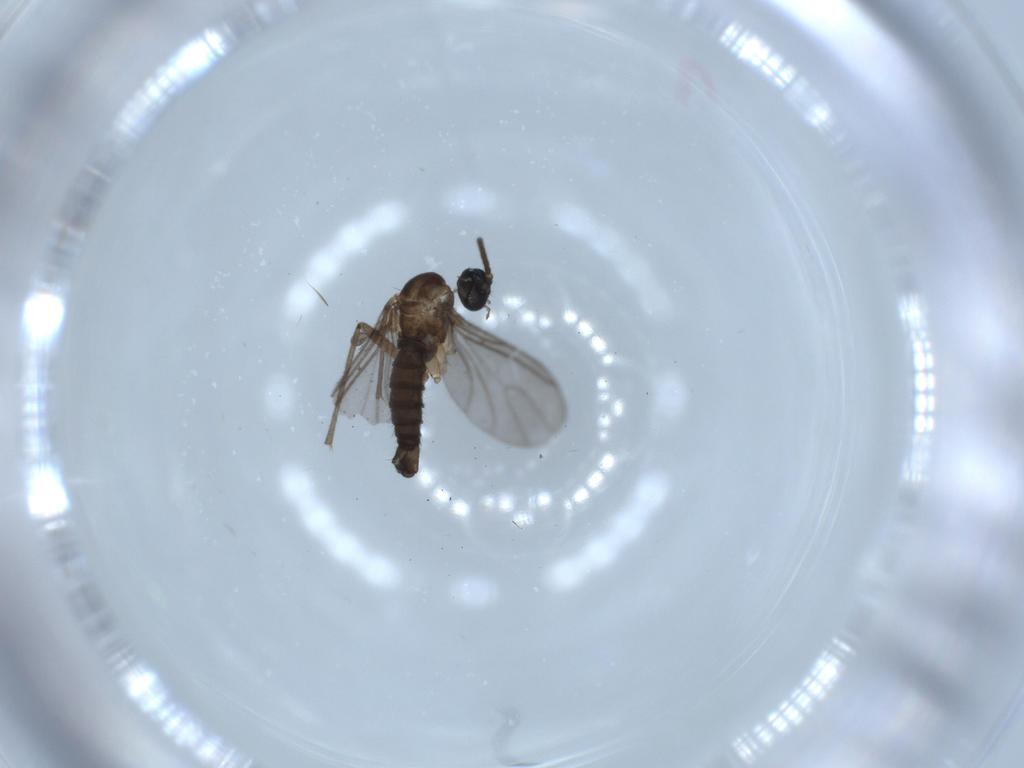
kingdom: Animalia
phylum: Arthropoda
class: Insecta
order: Diptera
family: Sciaridae
